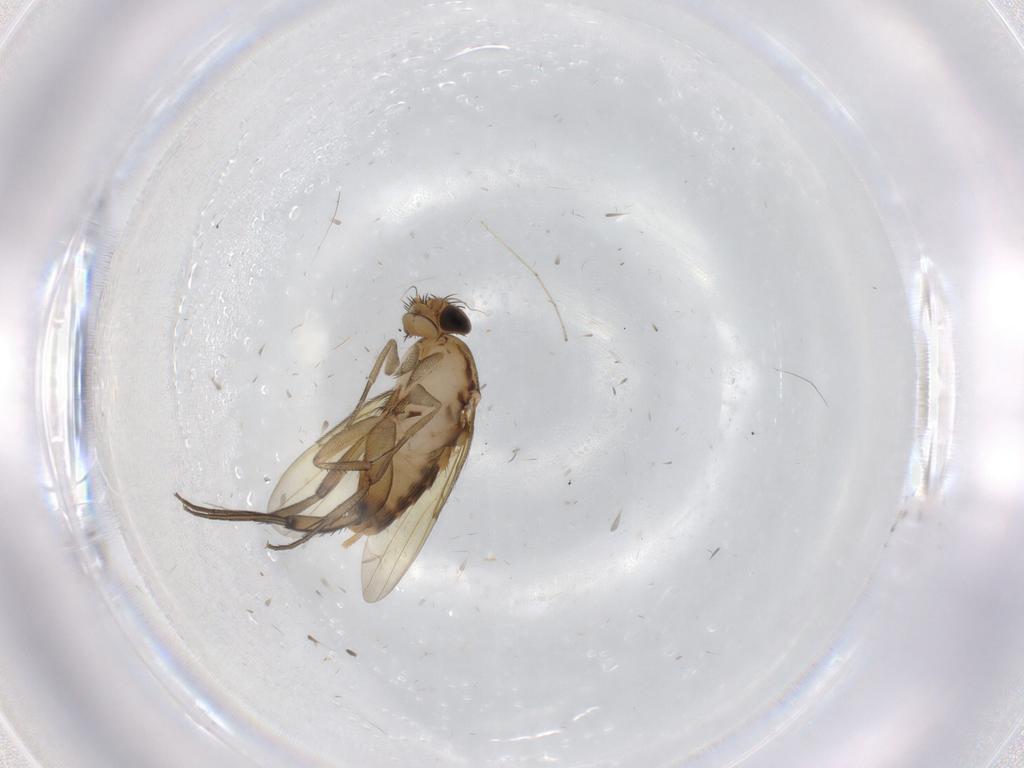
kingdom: Animalia
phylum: Arthropoda
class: Insecta
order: Diptera
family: Phoridae
